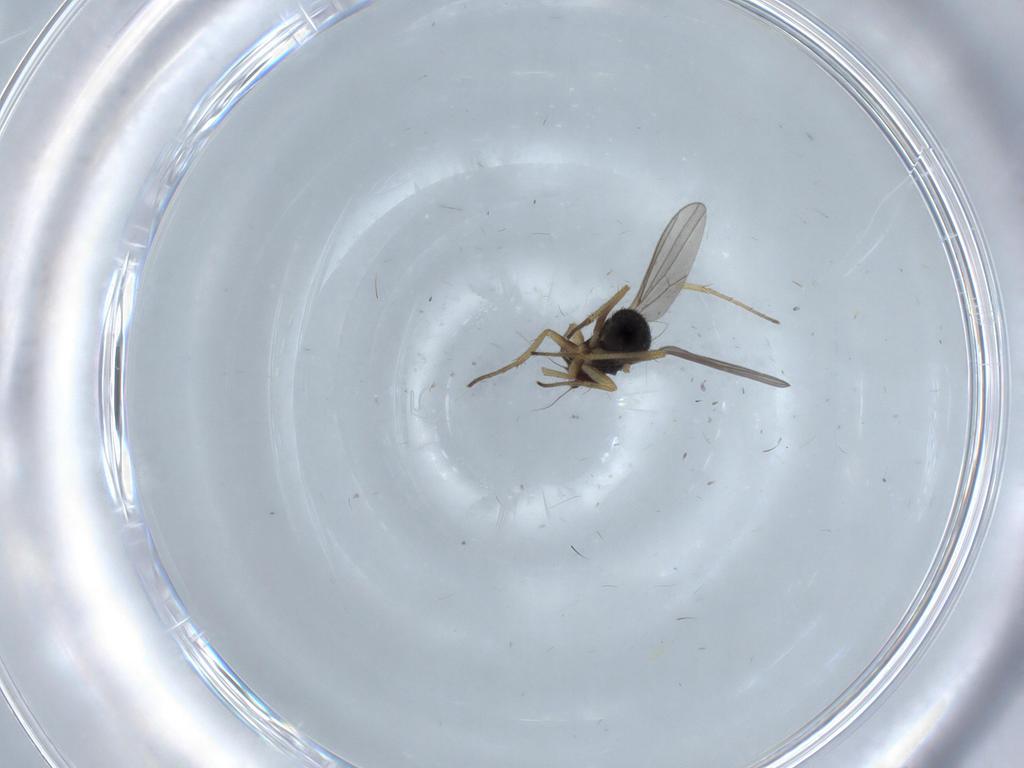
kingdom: Animalia
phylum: Arthropoda
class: Insecta
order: Diptera
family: Dolichopodidae
